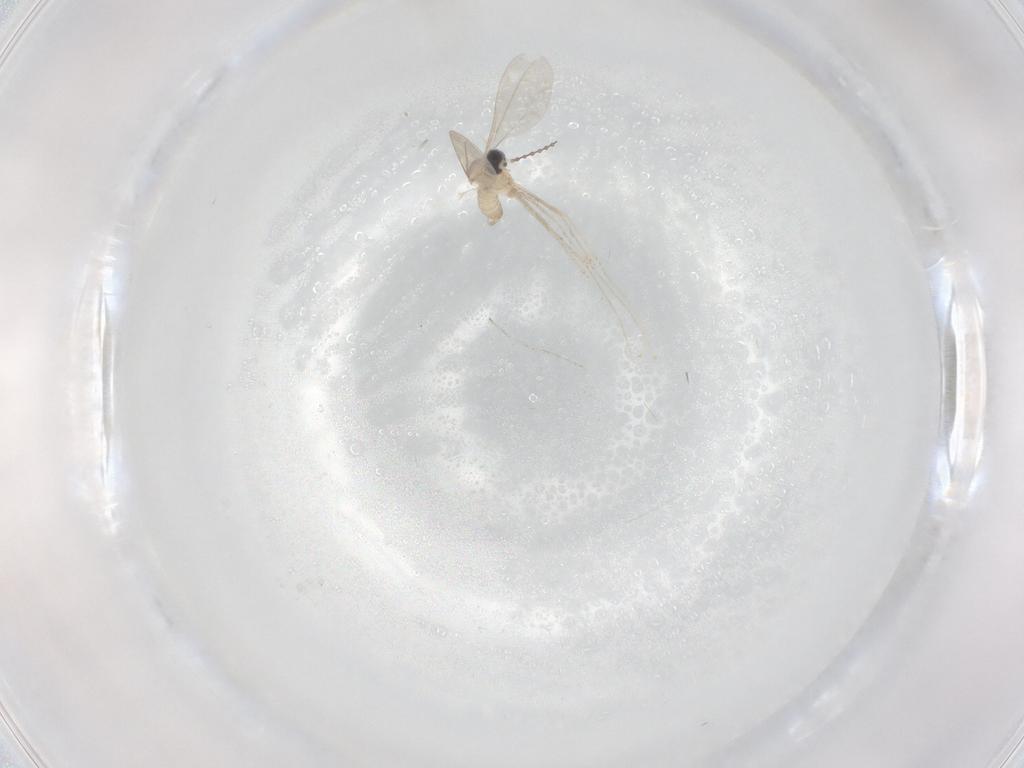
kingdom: Animalia
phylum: Arthropoda
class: Insecta
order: Diptera
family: Cecidomyiidae
